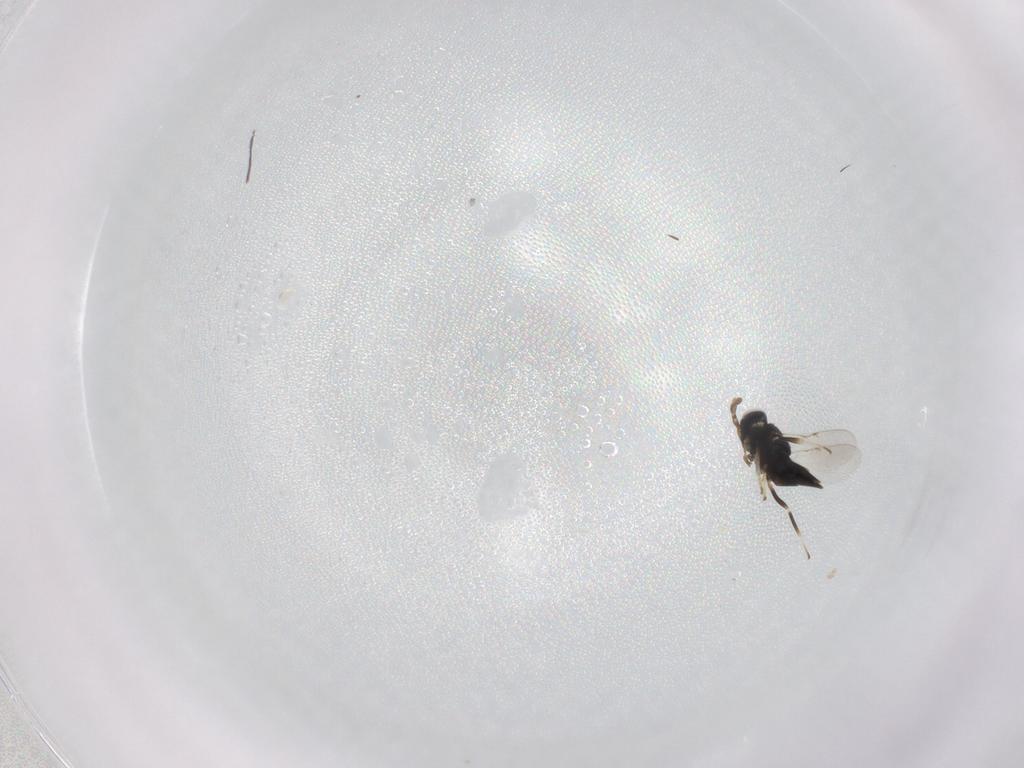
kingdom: Animalia
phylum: Arthropoda
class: Insecta
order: Hymenoptera
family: Encyrtidae
